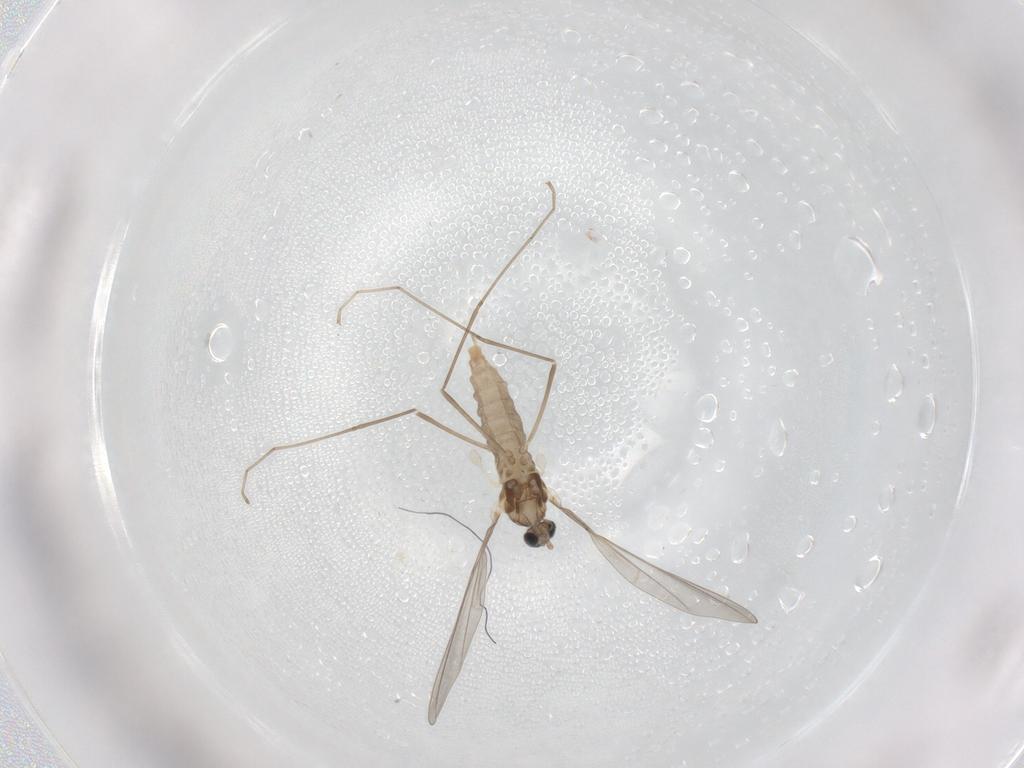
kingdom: Animalia
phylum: Arthropoda
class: Insecta
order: Diptera
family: Cecidomyiidae
